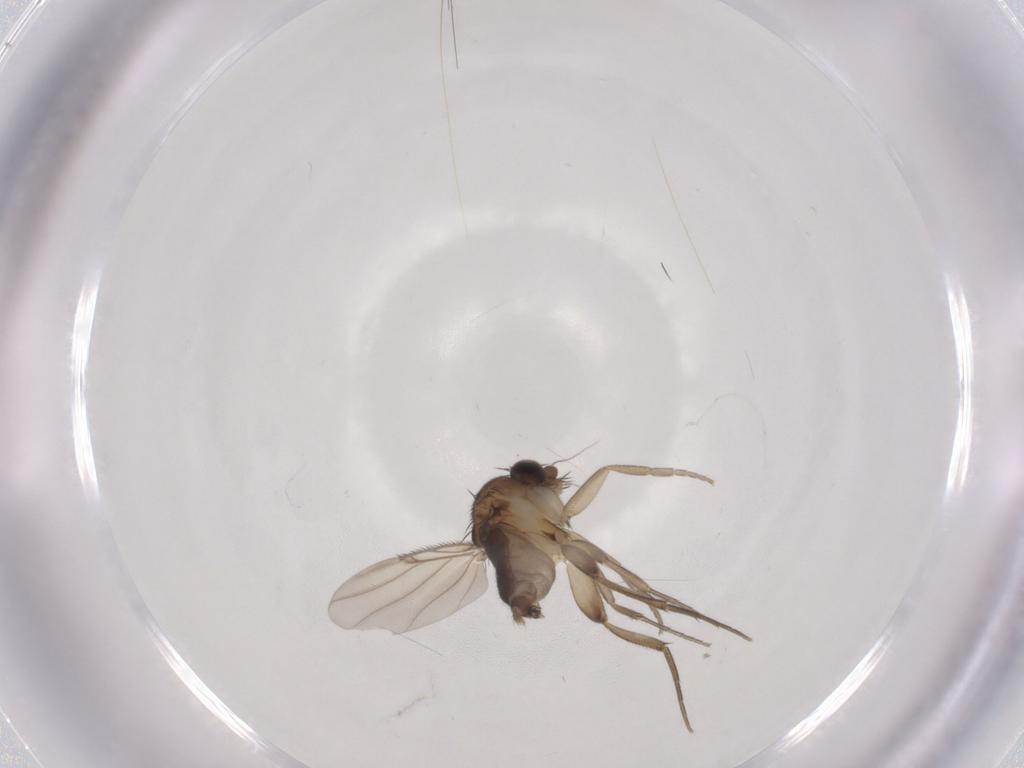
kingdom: Animalia
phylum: Arthropoda
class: Insecta
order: Diptera
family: Phoridae
